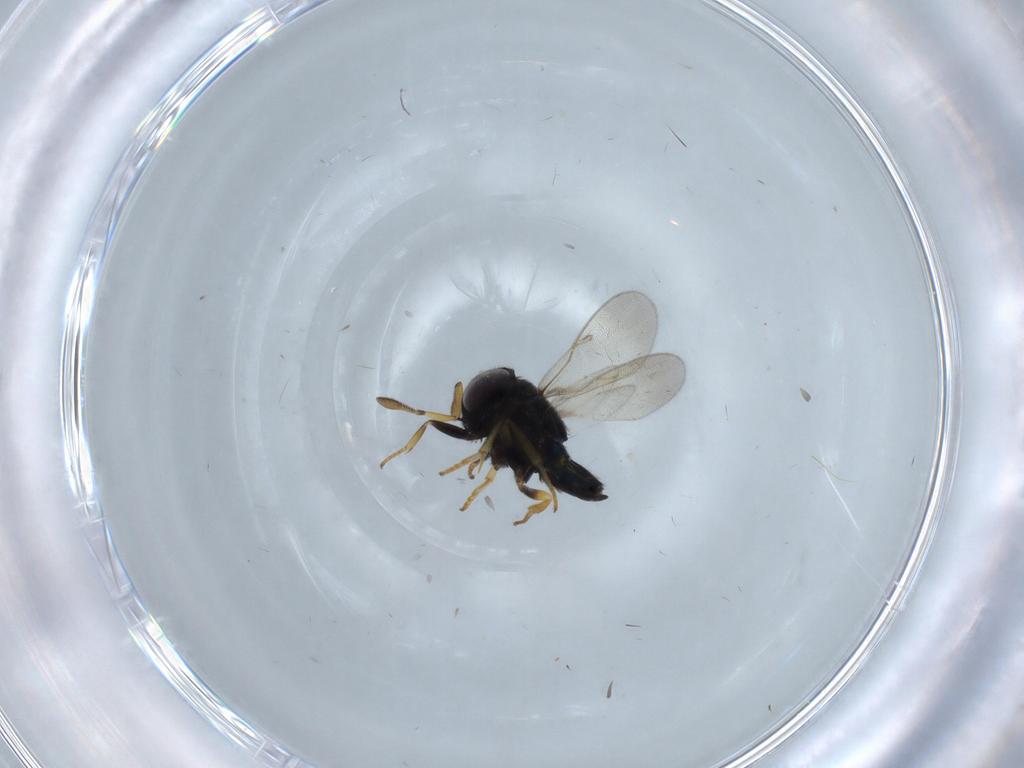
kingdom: Animalia
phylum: Arthropoda
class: Insecta
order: Hymenoptera
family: Encyrtidae
